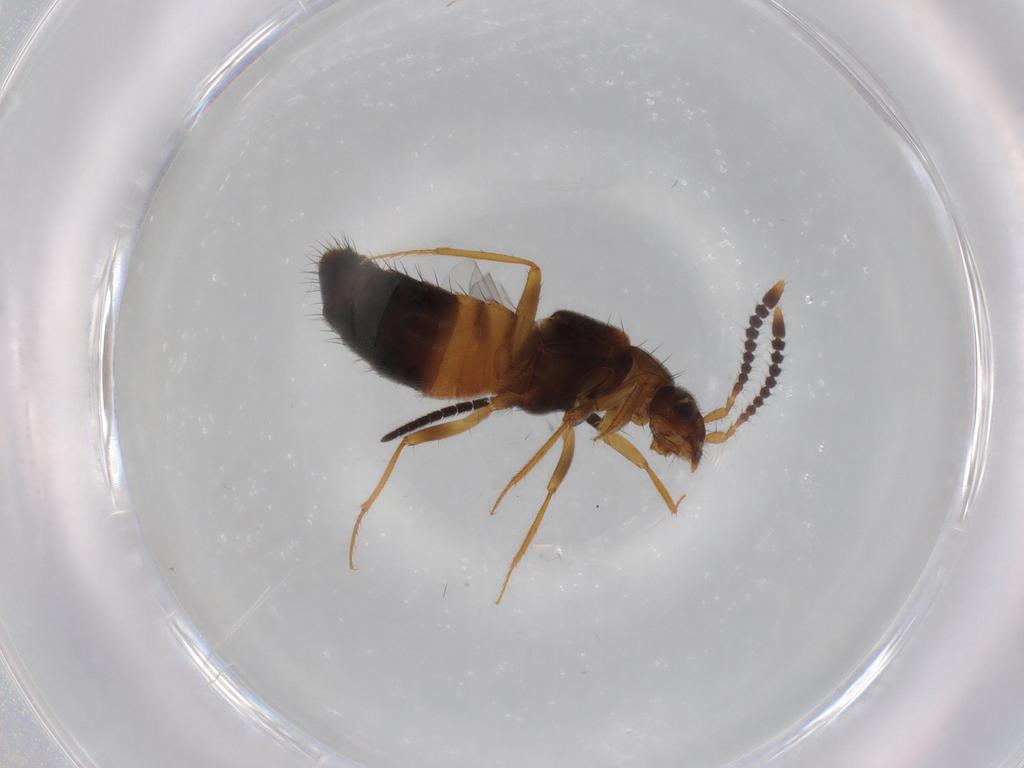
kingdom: Animalia
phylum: Arthropoda
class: Insecta
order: Coleoptera
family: Staphylinidae
